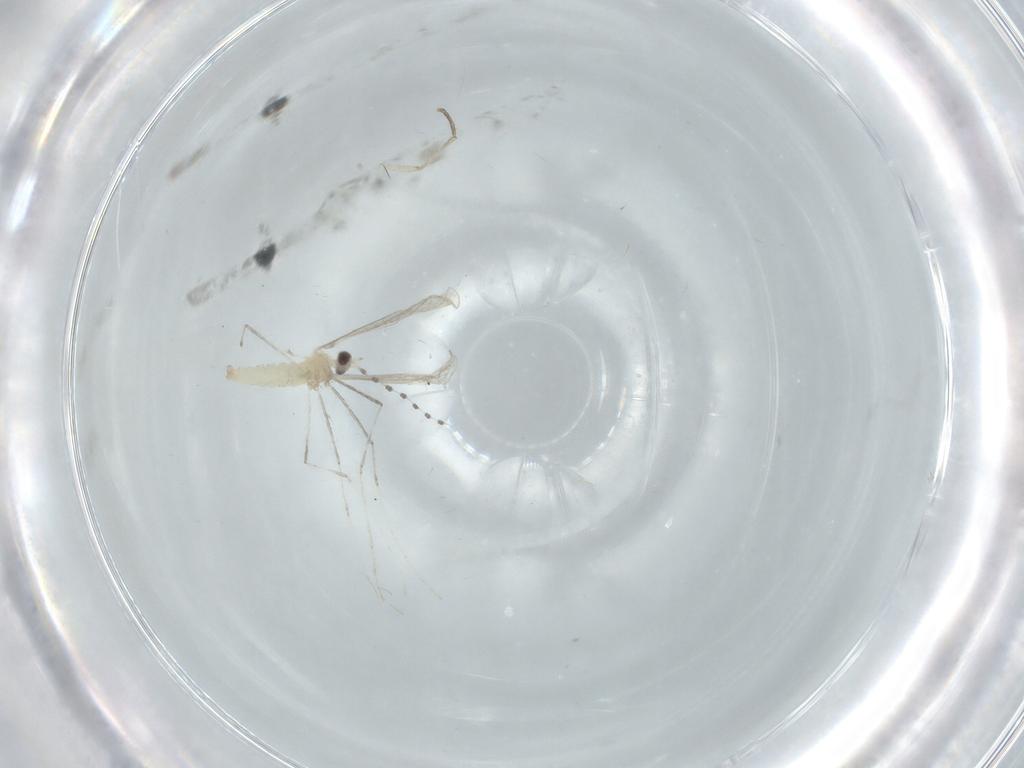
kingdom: Animalia
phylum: Arthropoda
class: Insecta
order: Diptera
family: Cecidomyiidae
